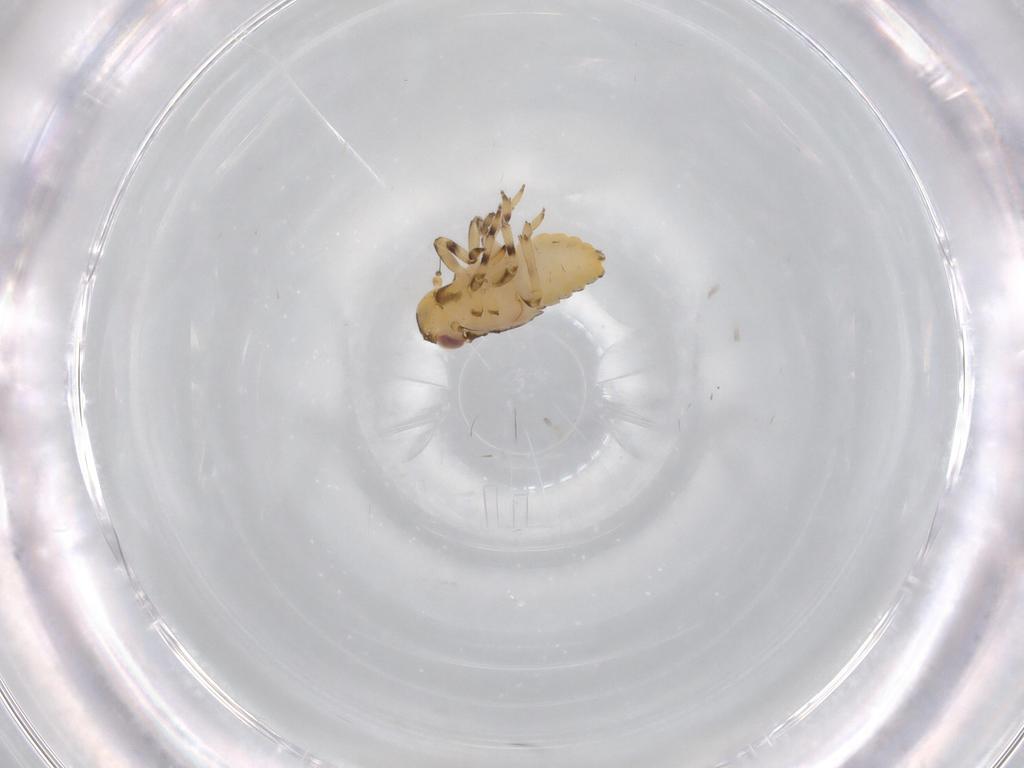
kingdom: Animalia
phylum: Arthropoda
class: Insecta
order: Hemiptera
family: Issidae
